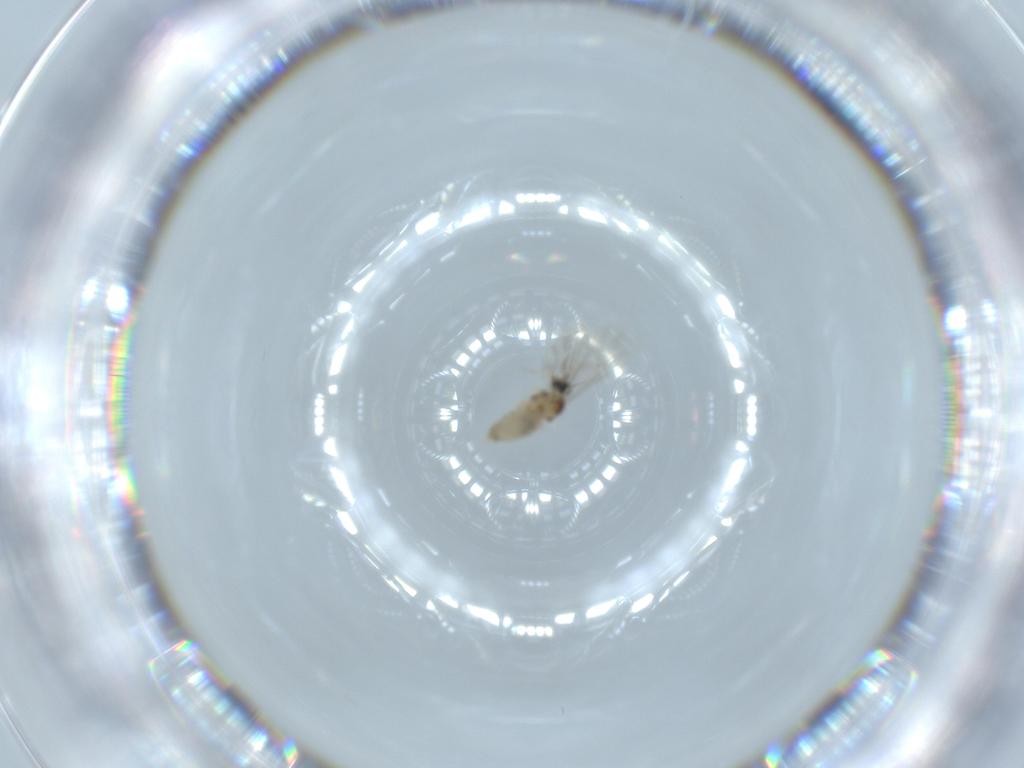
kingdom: Animalia
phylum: Arthropoda
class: Insecta
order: Diptera
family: Cecidomyiidae
